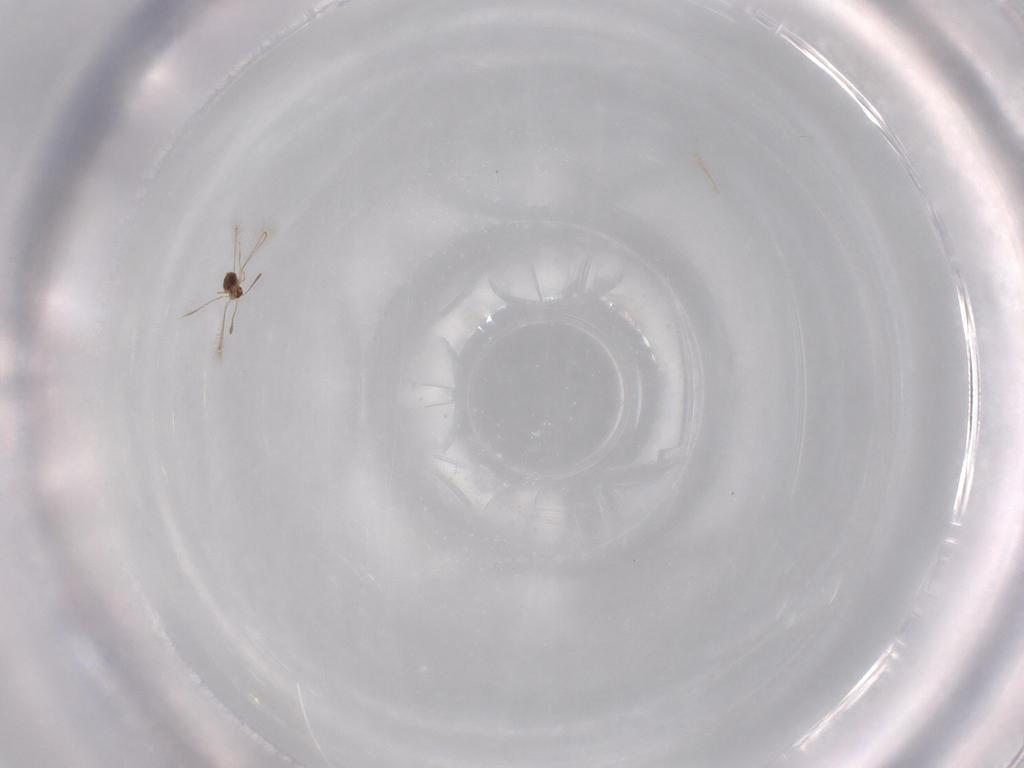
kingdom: Animalia
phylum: Arthropoda
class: Insecta
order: Hymenoptera
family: Mymaridae
